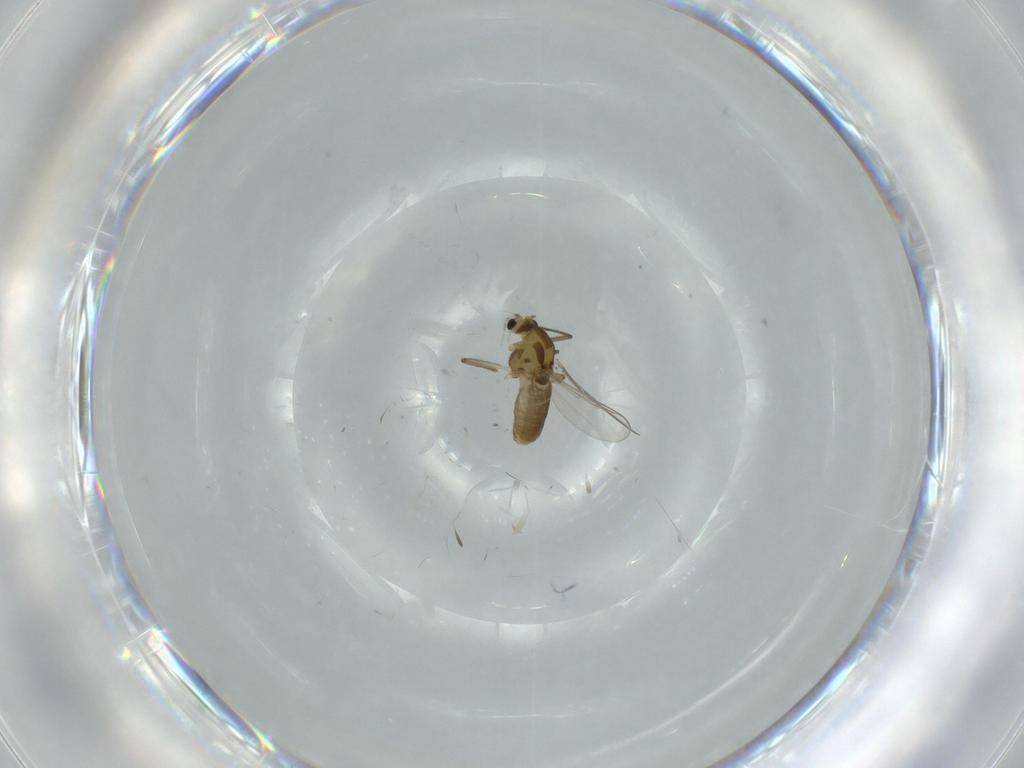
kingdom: Animalia
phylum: Arthropoda
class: Insecta
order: Diptera
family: Chironomidae
